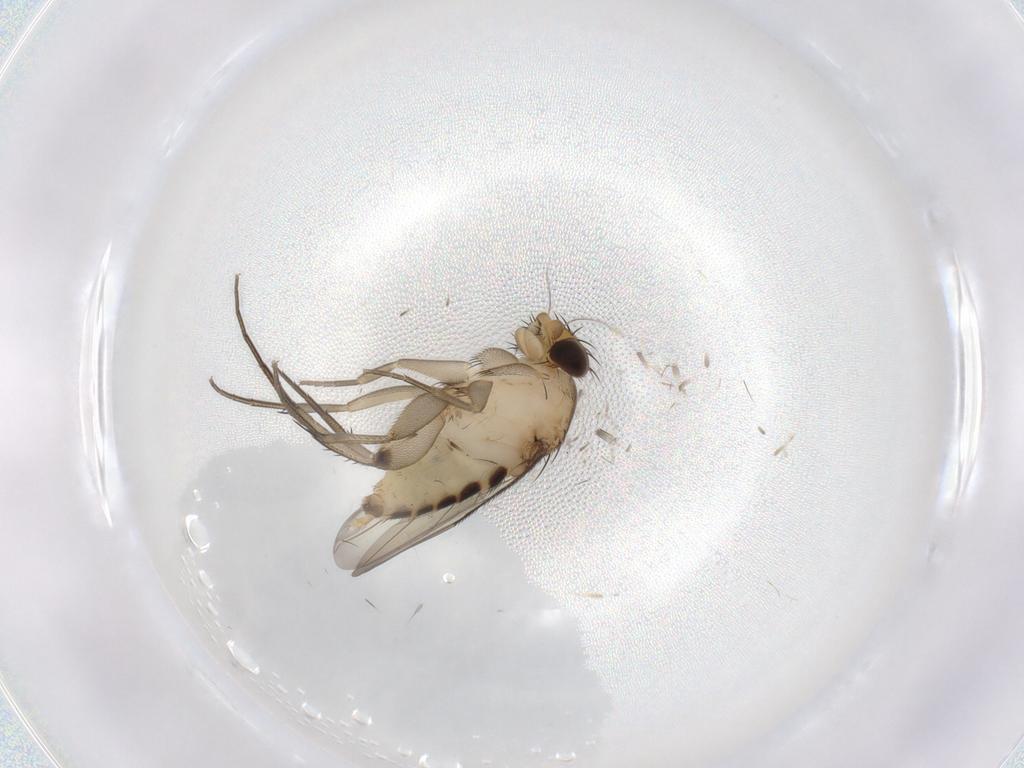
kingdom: Animalia
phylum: Arthropoda
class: Insecta
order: Diptera
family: Phoridae
